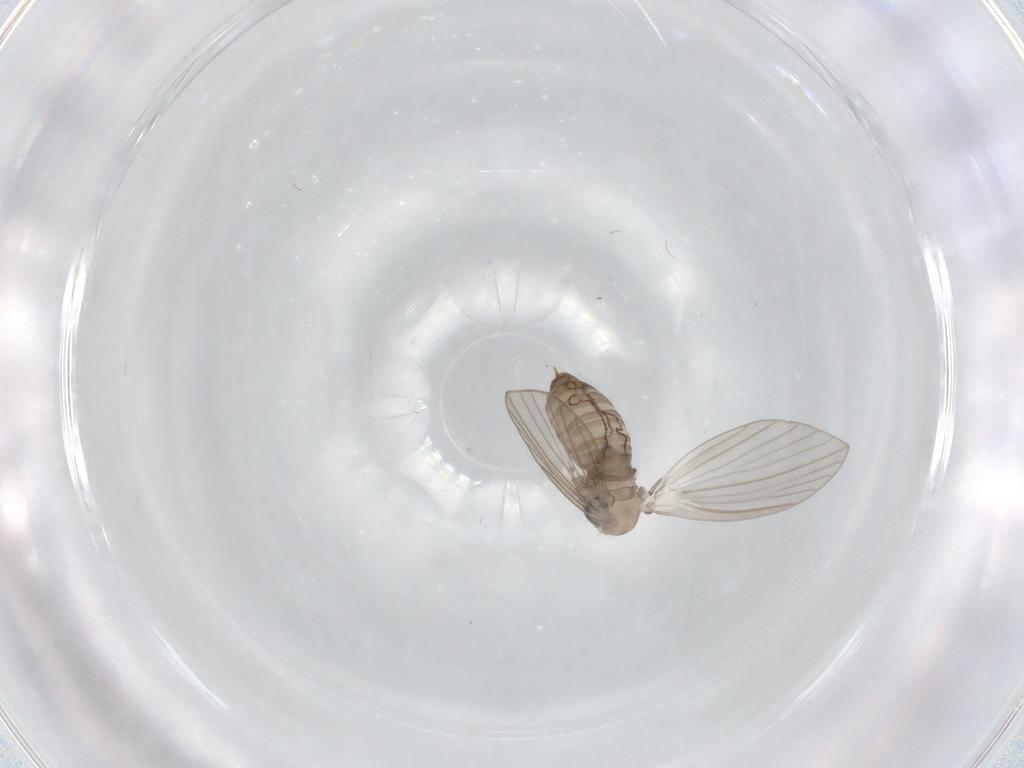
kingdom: Animalia
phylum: Arthropoda
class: Insecta
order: Diptera
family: Psychodidae
